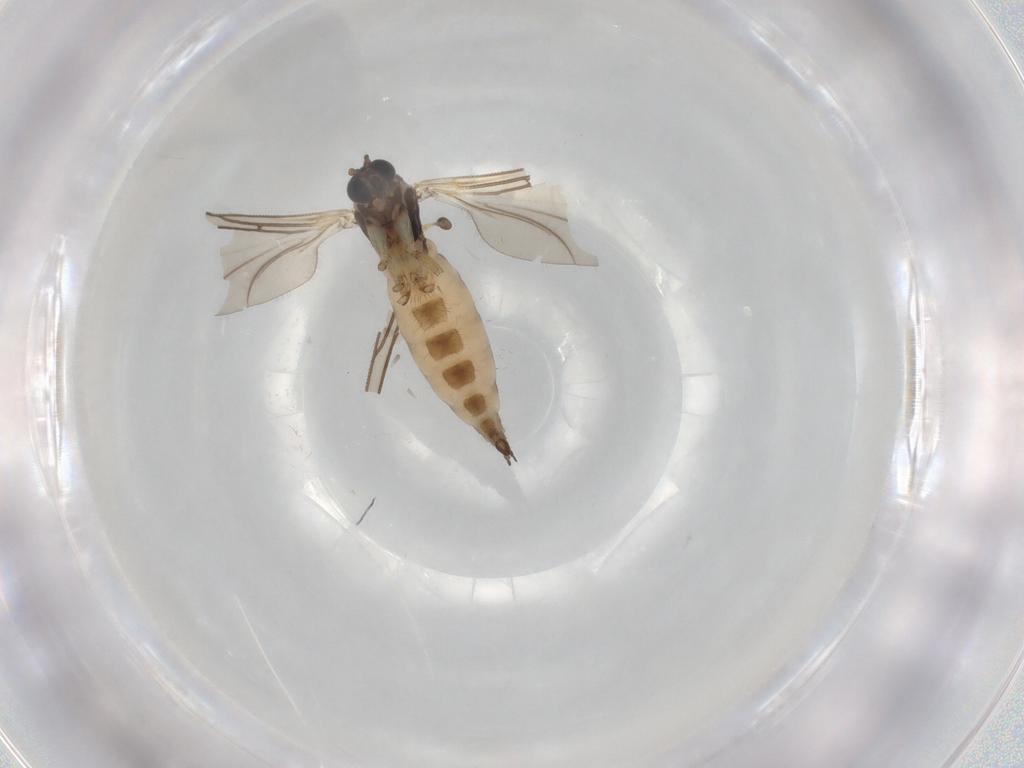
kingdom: Animalia
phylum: Arthropoda
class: Insecta
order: Diptera
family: Sciaridae
